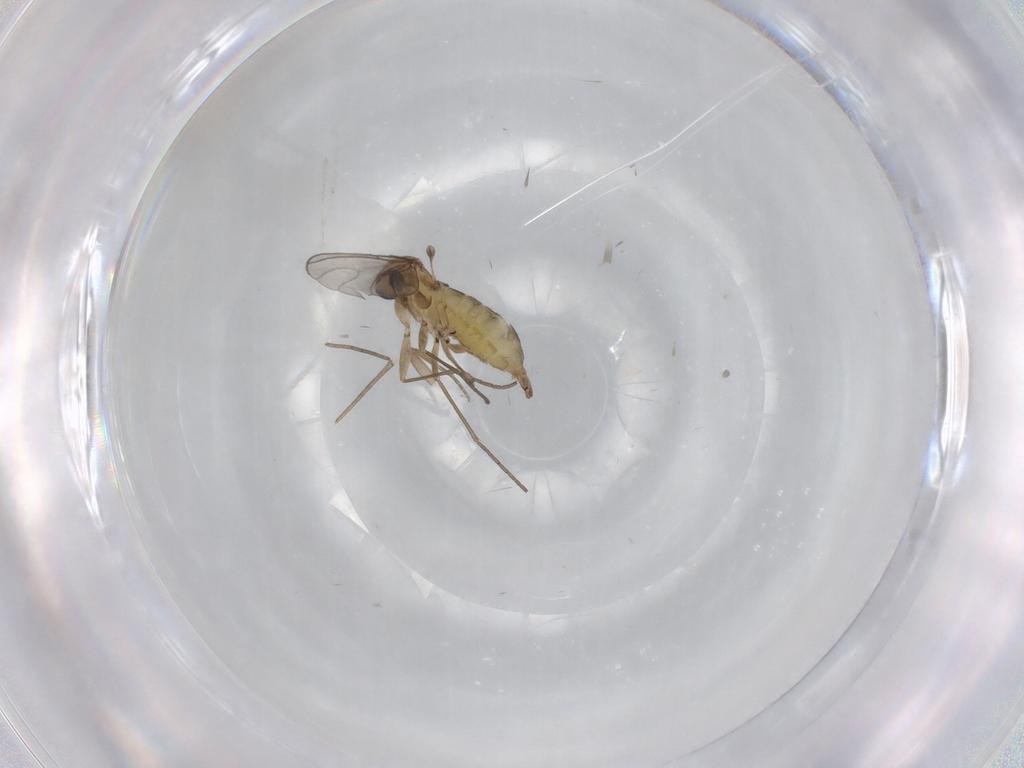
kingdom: Animalia
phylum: Arthropoda
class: Insecta
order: Diptera
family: Sciaridae
